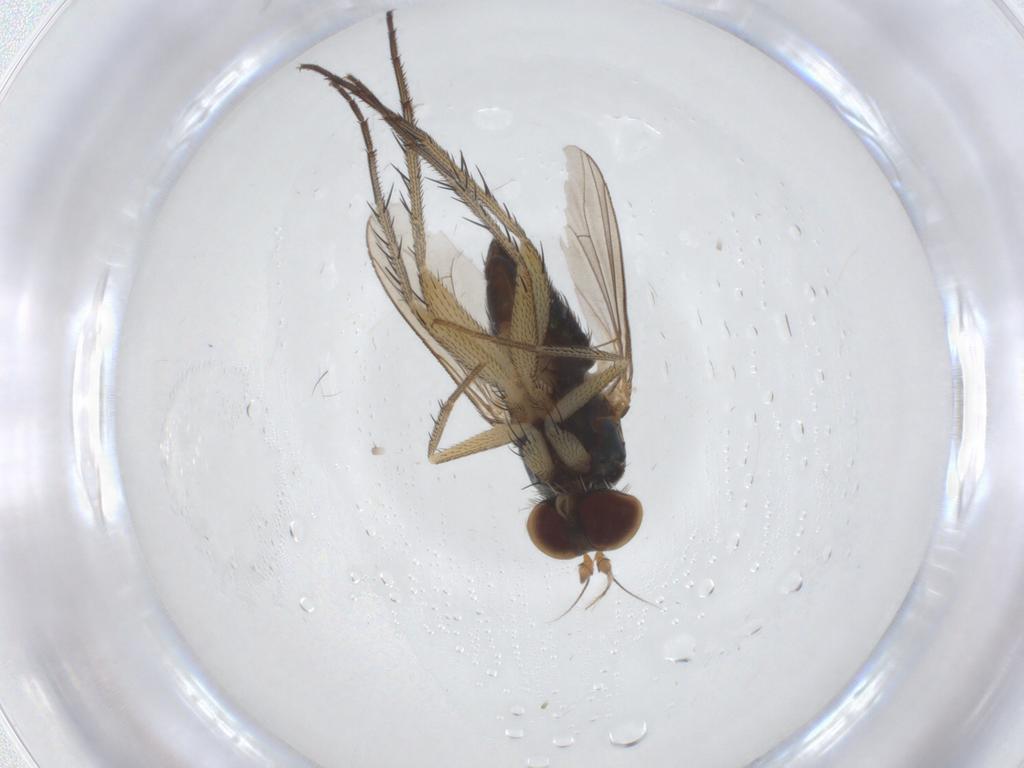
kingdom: Animalia
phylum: Arthropoda
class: Insecta
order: Diptera
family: Dolichopodidae
